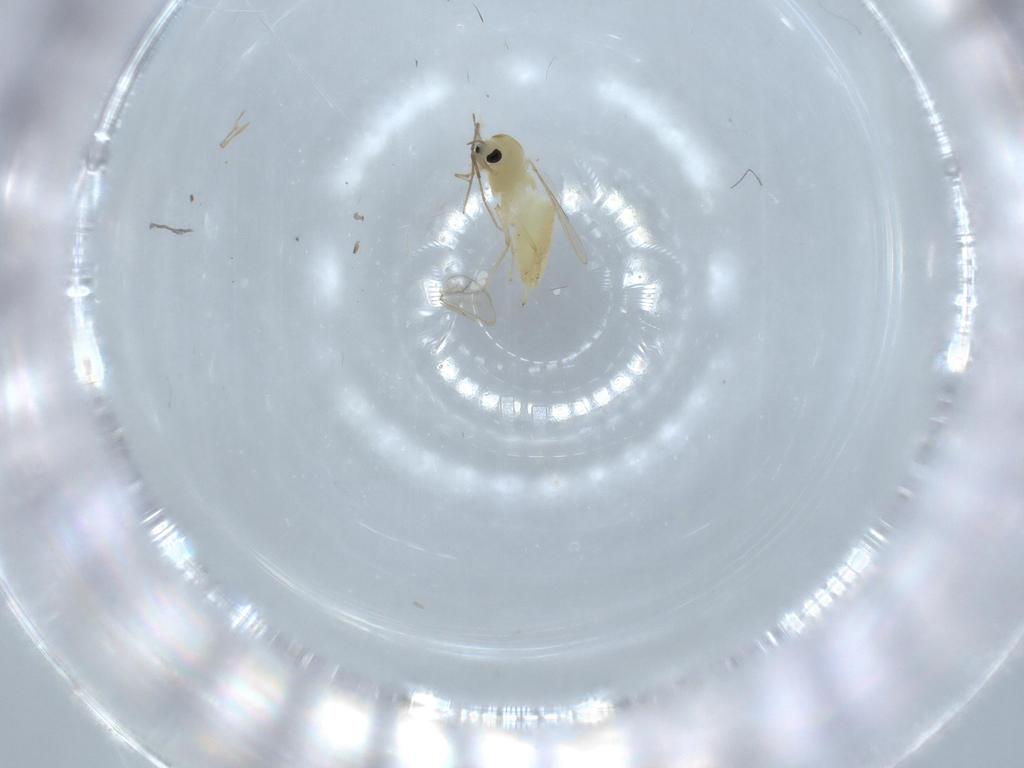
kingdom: Animalia
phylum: Arthropoda
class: Insecta
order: Diptera
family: Chironomidae
